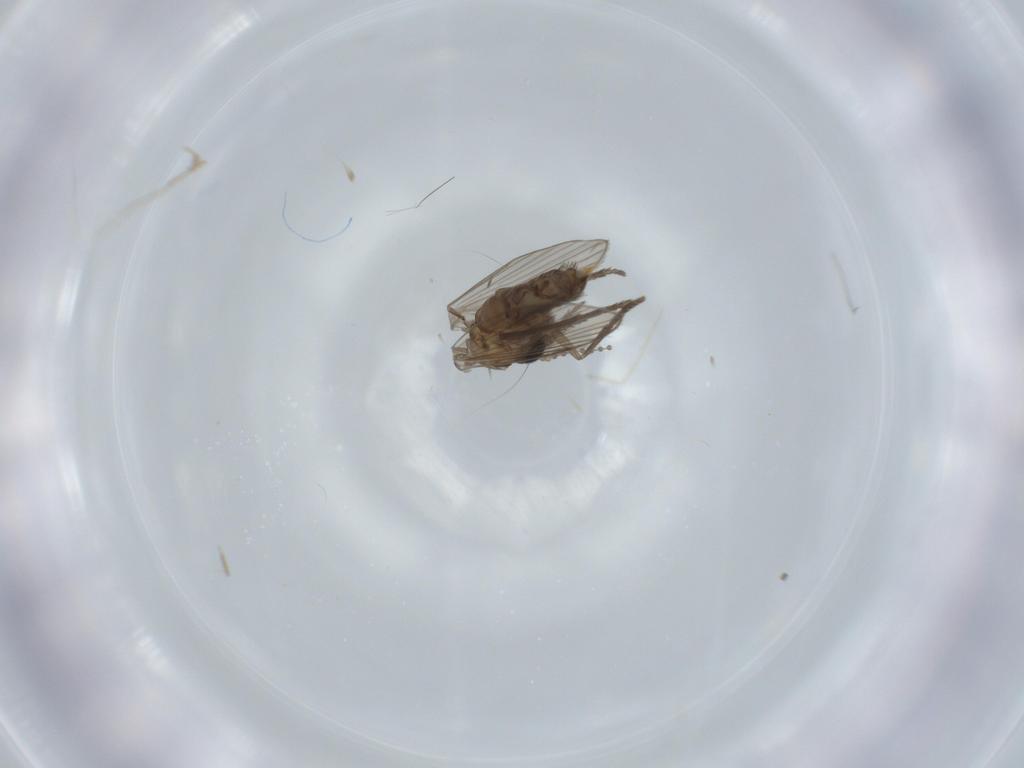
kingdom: Animalia
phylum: Arthropoda
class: Insecta
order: Diptera
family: Psychodidae
